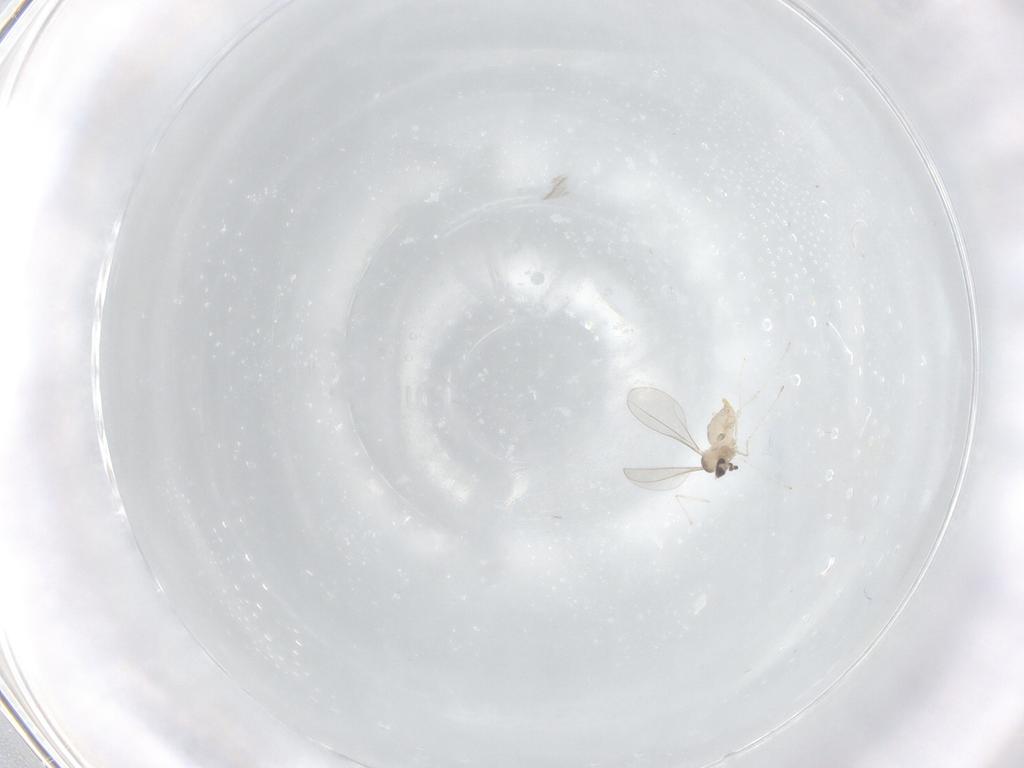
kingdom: Animalia
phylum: Arthropoda
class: Insecta
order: Diptera
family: Cecidomyiidae
